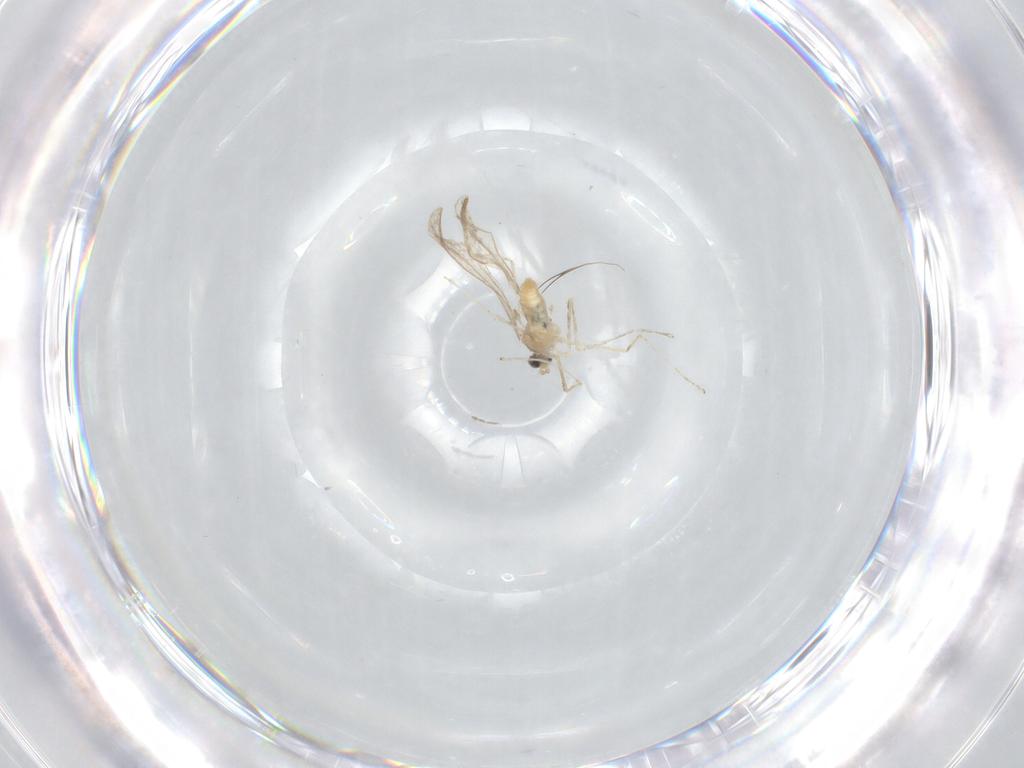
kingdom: Animalia
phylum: Arthropoda
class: Insecta
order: Diptera
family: Cecidomyiidae
